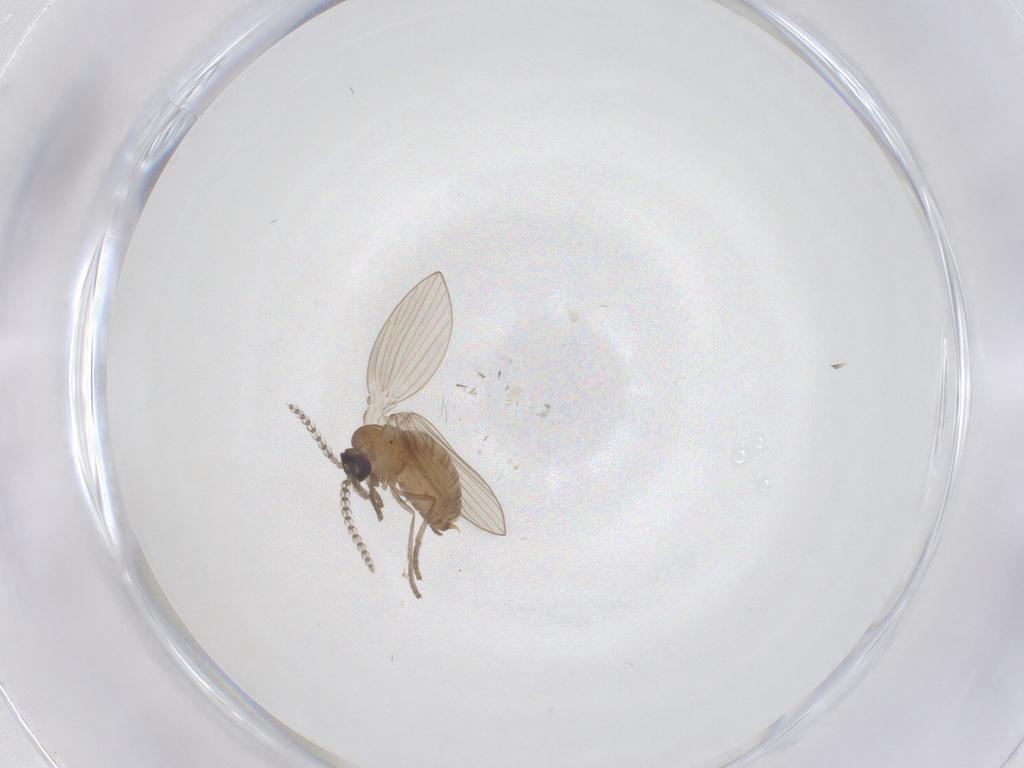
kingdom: Animalia
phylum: Arthropoda
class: Insecta
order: Diptera
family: Psychodidae
